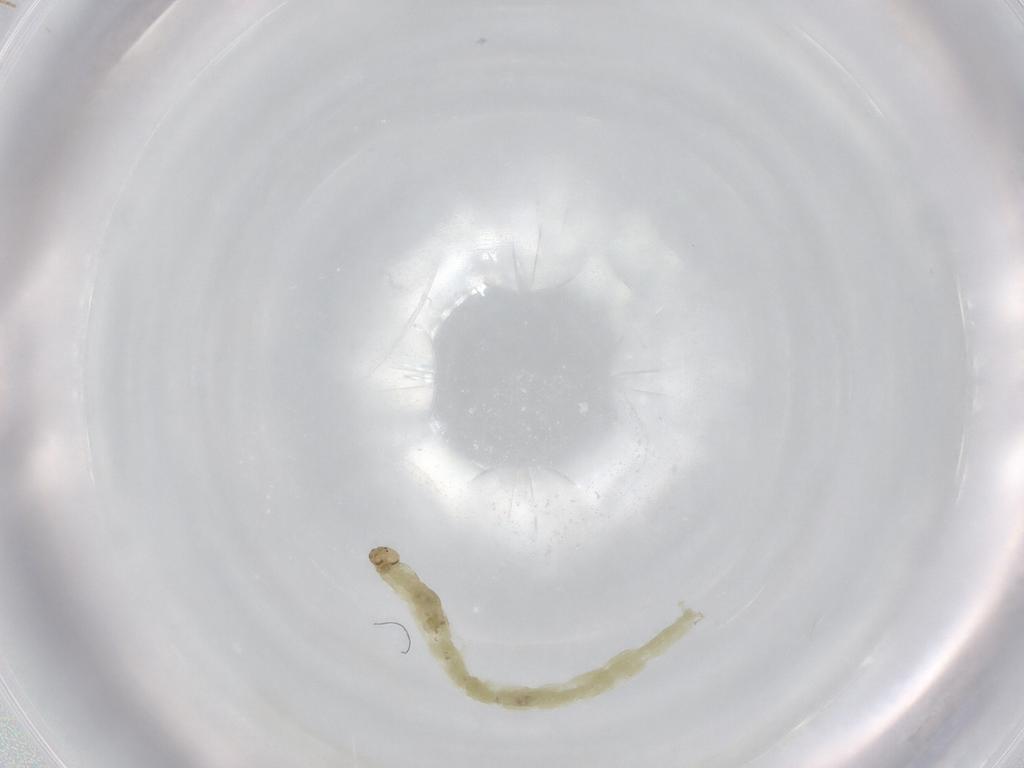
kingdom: Animalia
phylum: Arthropoda
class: Insecta
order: Diptera
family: Chironomidae
